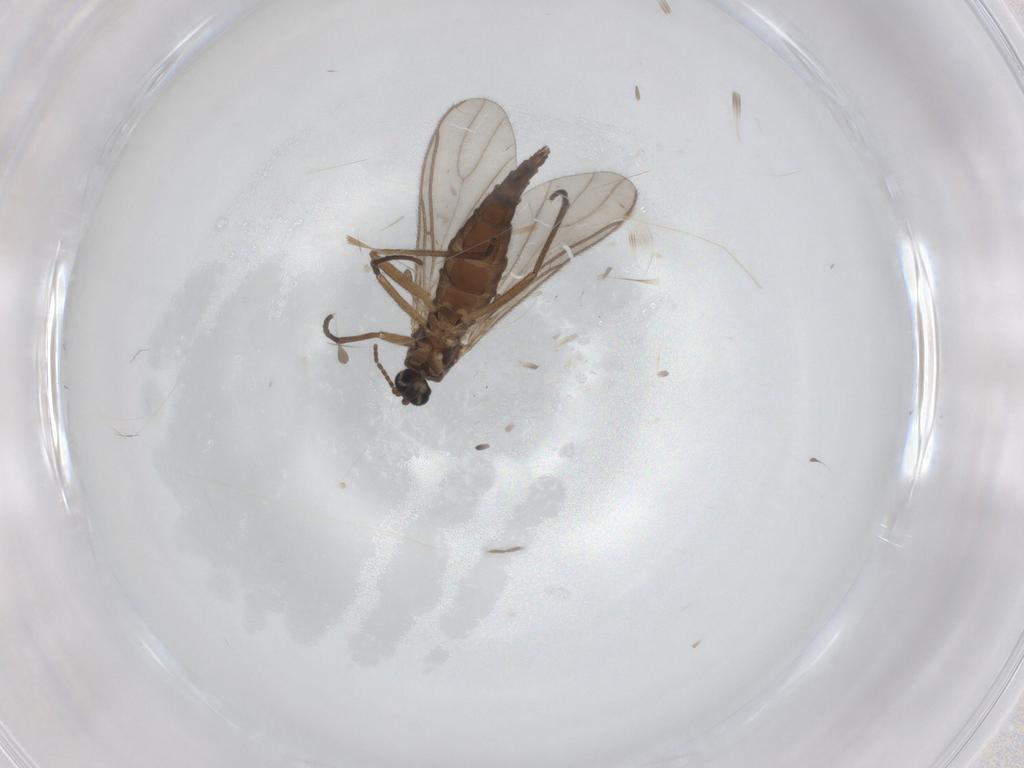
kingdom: Animalia
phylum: Arthropoda
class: Insecta
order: Diptera
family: Sciaridae
